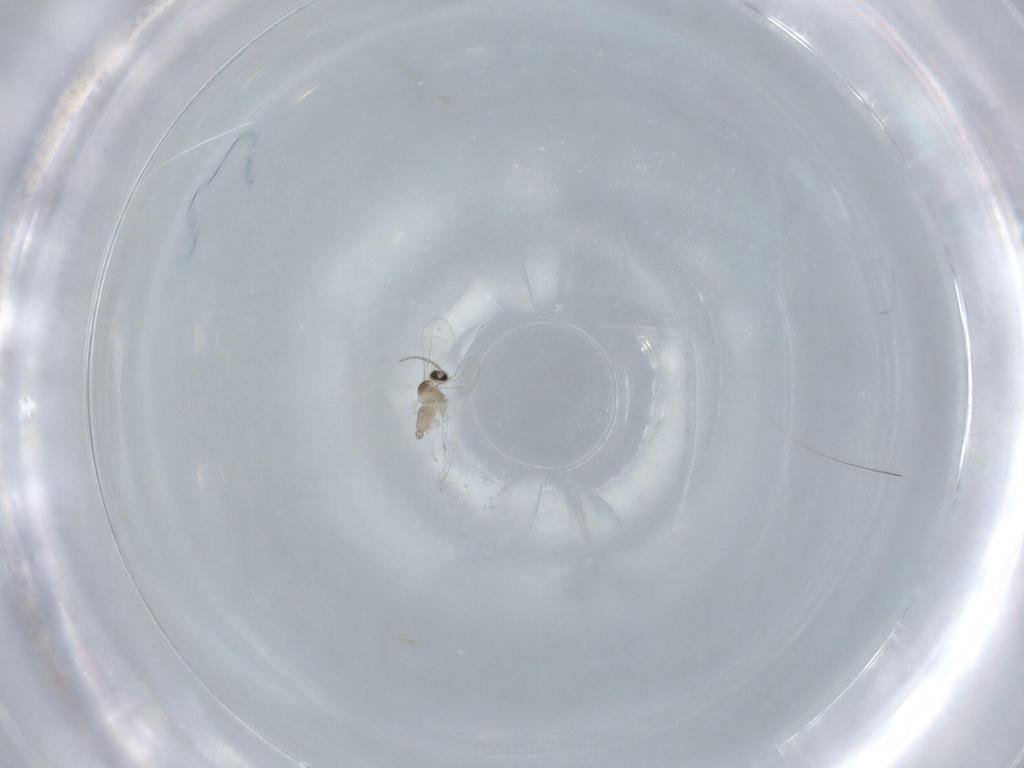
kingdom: Animalia
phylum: Arthropoda
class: Insecta
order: Diptera
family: Cecidomyiidae
